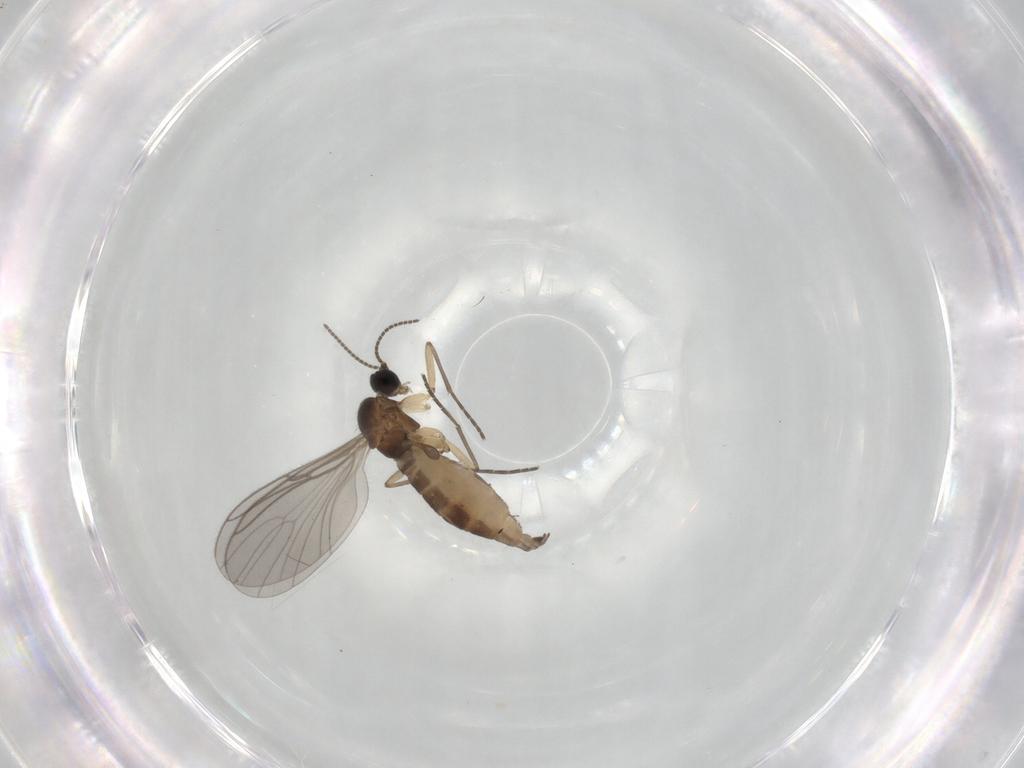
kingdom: Animalia
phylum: Arthropoda
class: Insecta
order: Diptera
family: Sciaridae
